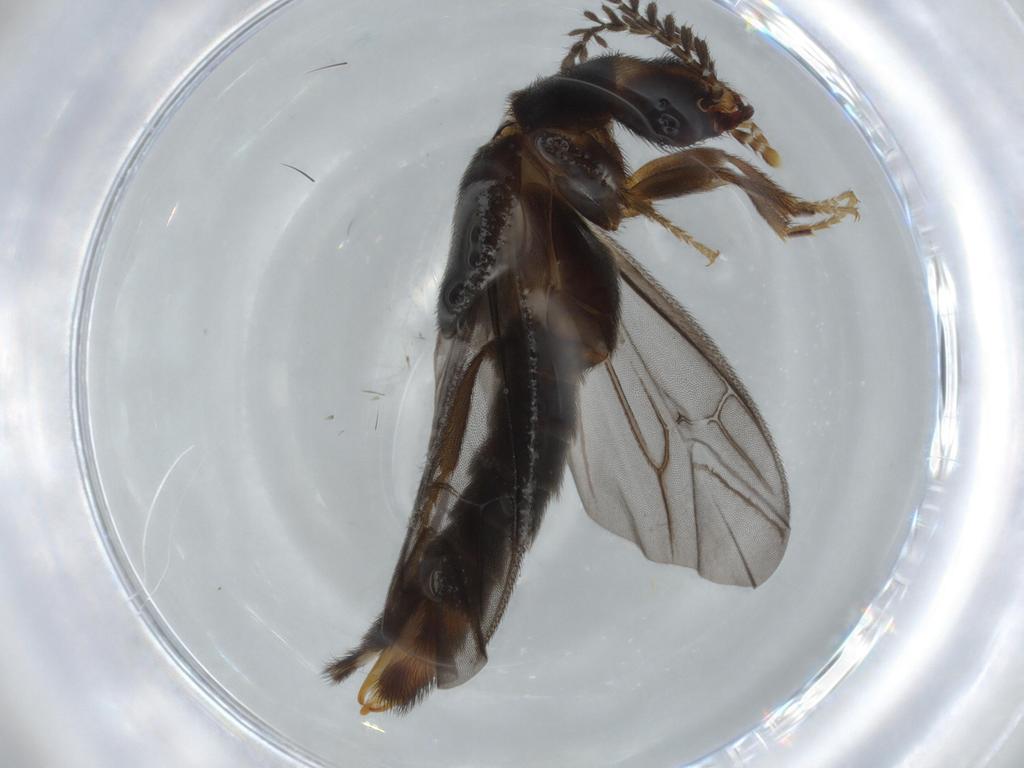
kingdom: Animalia
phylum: Arthropoda
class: Insecta
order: Coleoptera
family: Phengodidae
